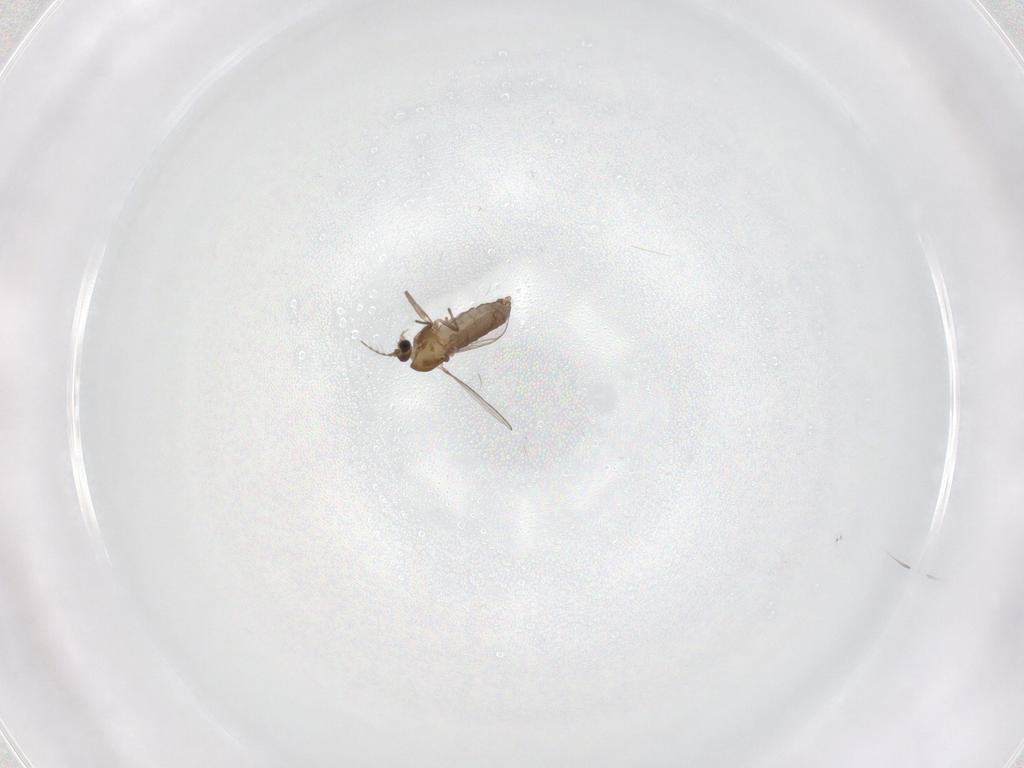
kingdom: Animalia
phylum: Arthropoda
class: Insecta
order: Diptera
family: Chironomidae
